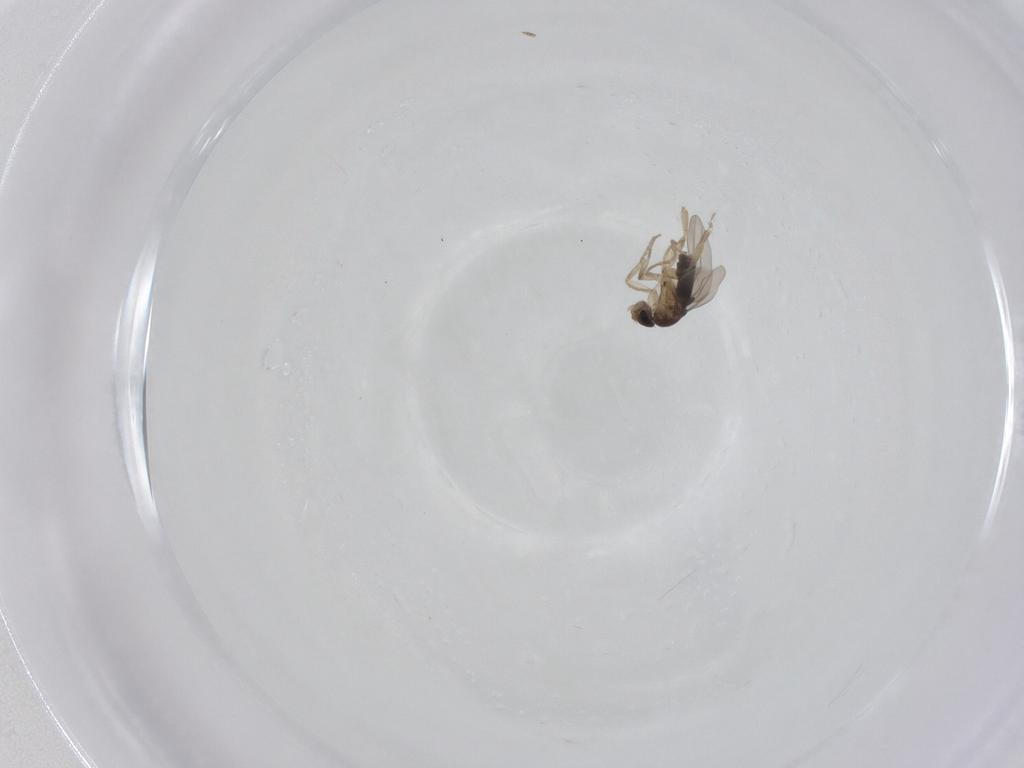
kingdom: Animalia
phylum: Arthropoda
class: Insecta
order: Diptera
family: Phoridae
